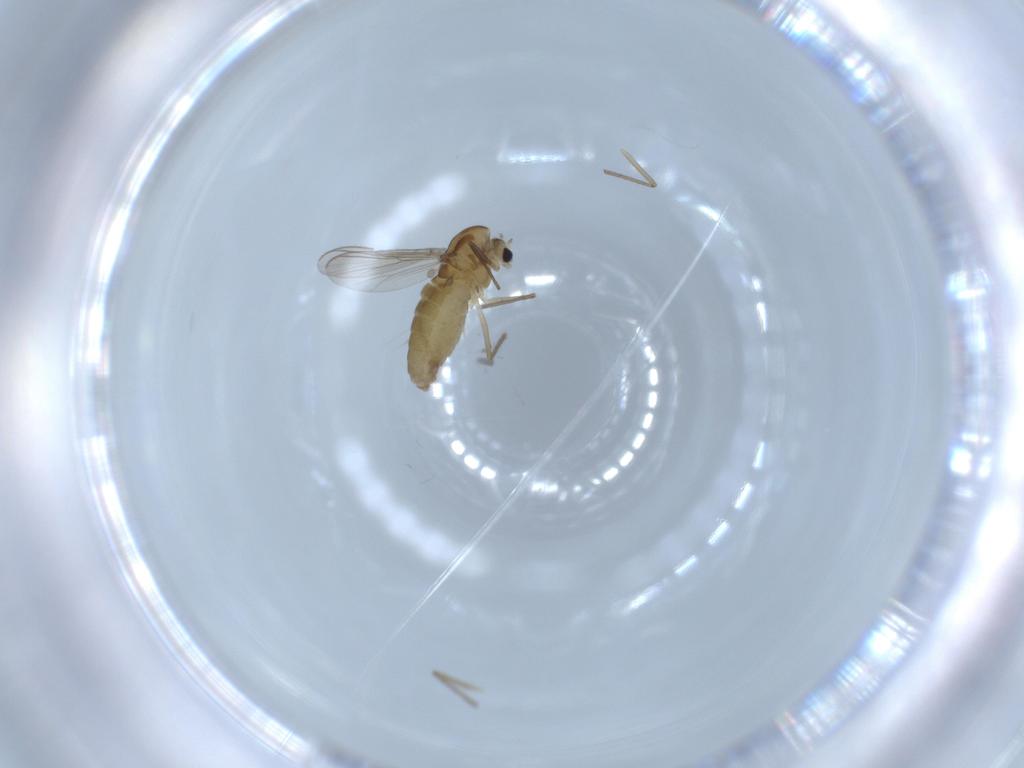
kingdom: Animalia
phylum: Arthropoda
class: Insecta
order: Diptera
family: Chironomidae
